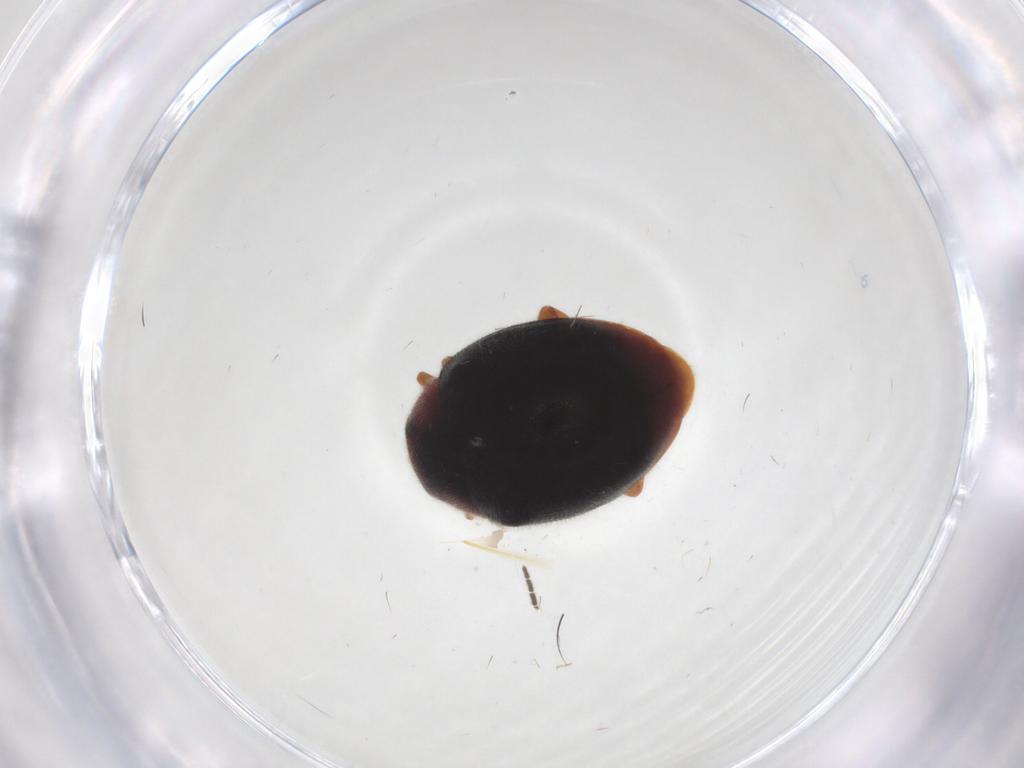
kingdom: Animalia
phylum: Arthropoda
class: Insecta
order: Coleoptera
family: Coccinellidae
